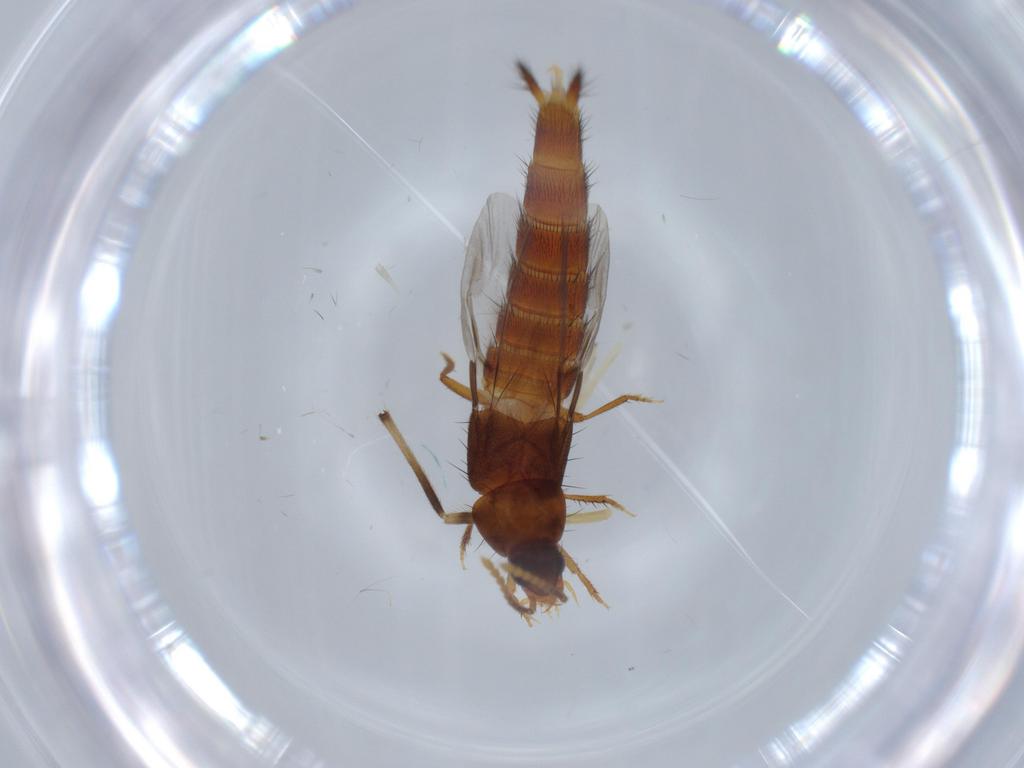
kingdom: Animalia
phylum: Arthropoda
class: Insecta
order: Coleoptera
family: Staphylinidae
